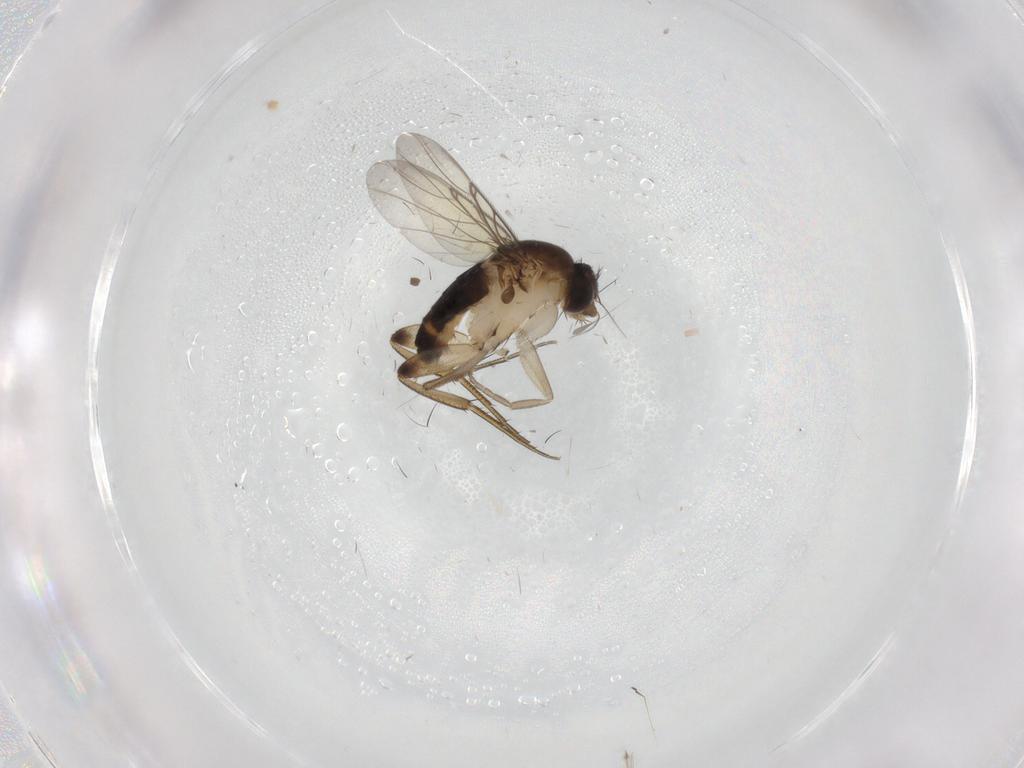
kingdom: Animalia
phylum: Arthropoda
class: Insecta
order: Diptera
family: Phoridae
